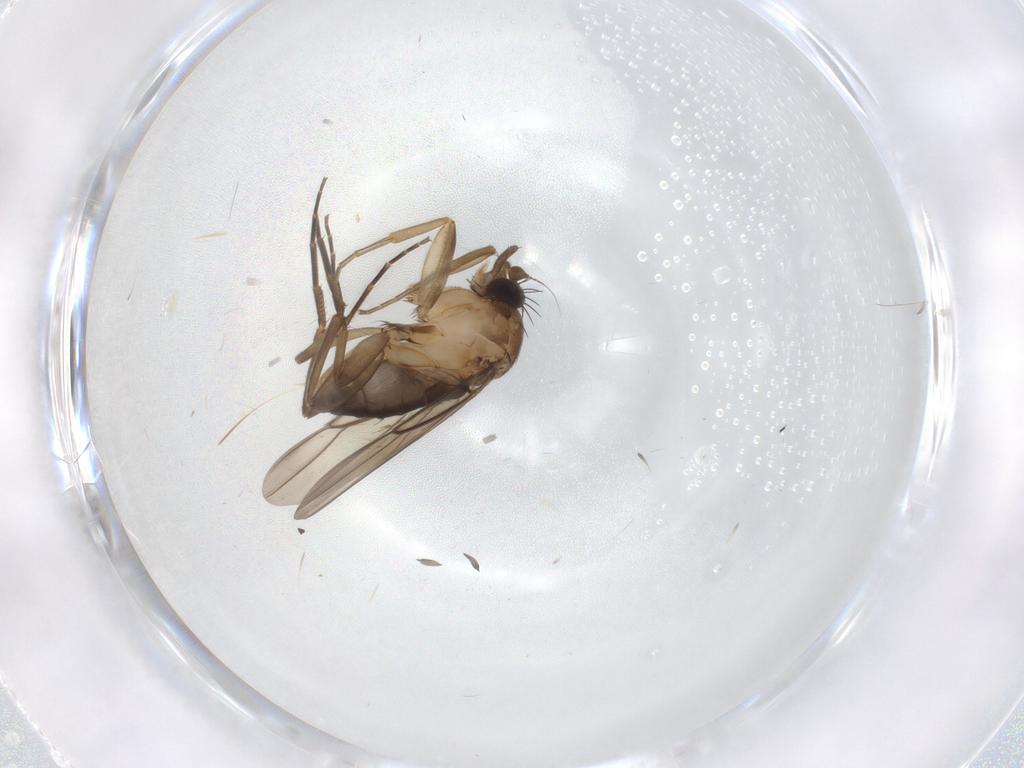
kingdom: Animalia
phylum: Arthropoda
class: Insecta
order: Diptera
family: Phoridae
